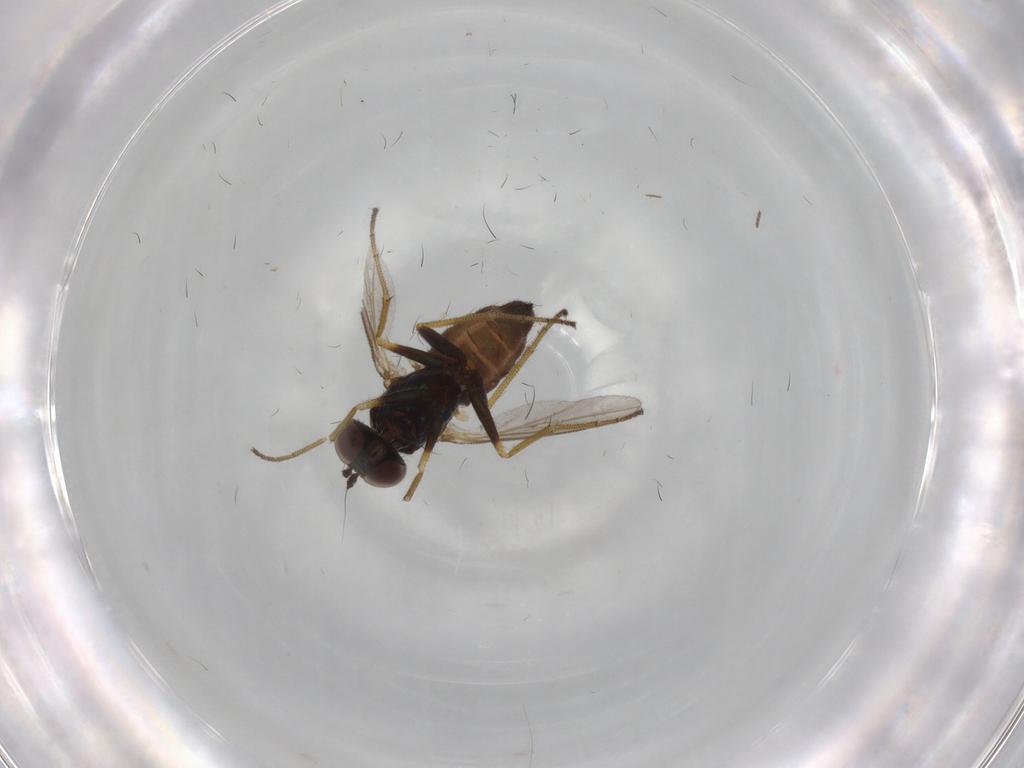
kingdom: Animalia
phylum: Arthropoda
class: Insecta
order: Diptera
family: Dolichopodidae
